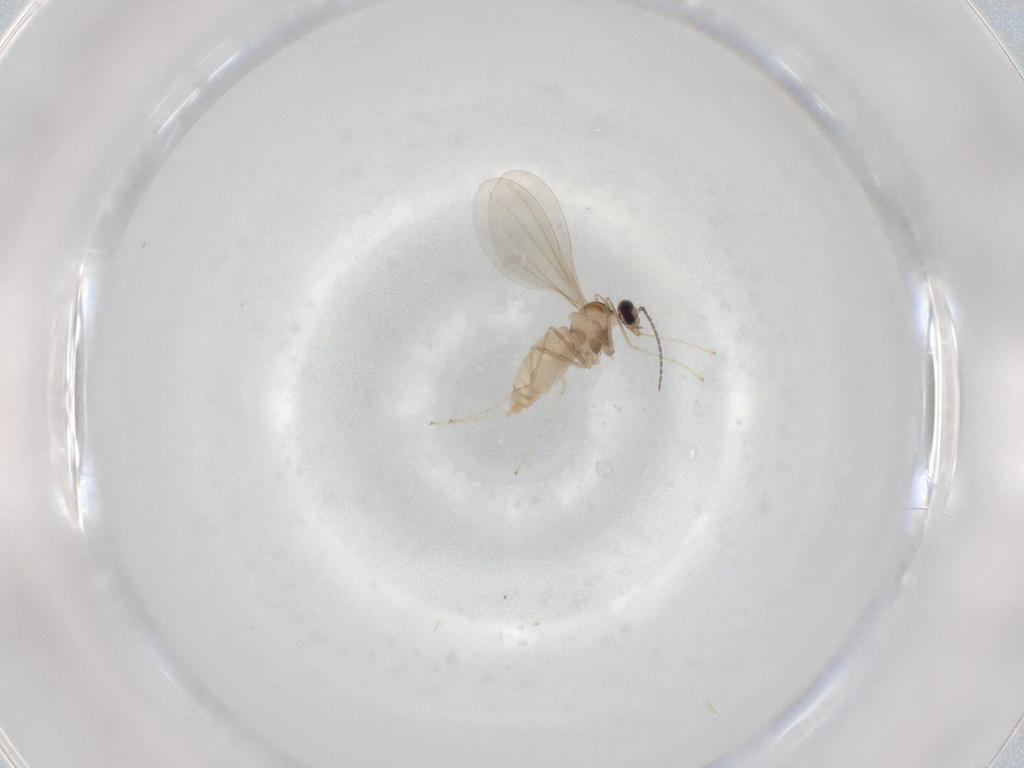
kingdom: Animalia
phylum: Arthropoda
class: Insecta
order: Diptera
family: Cecidomyiidae
